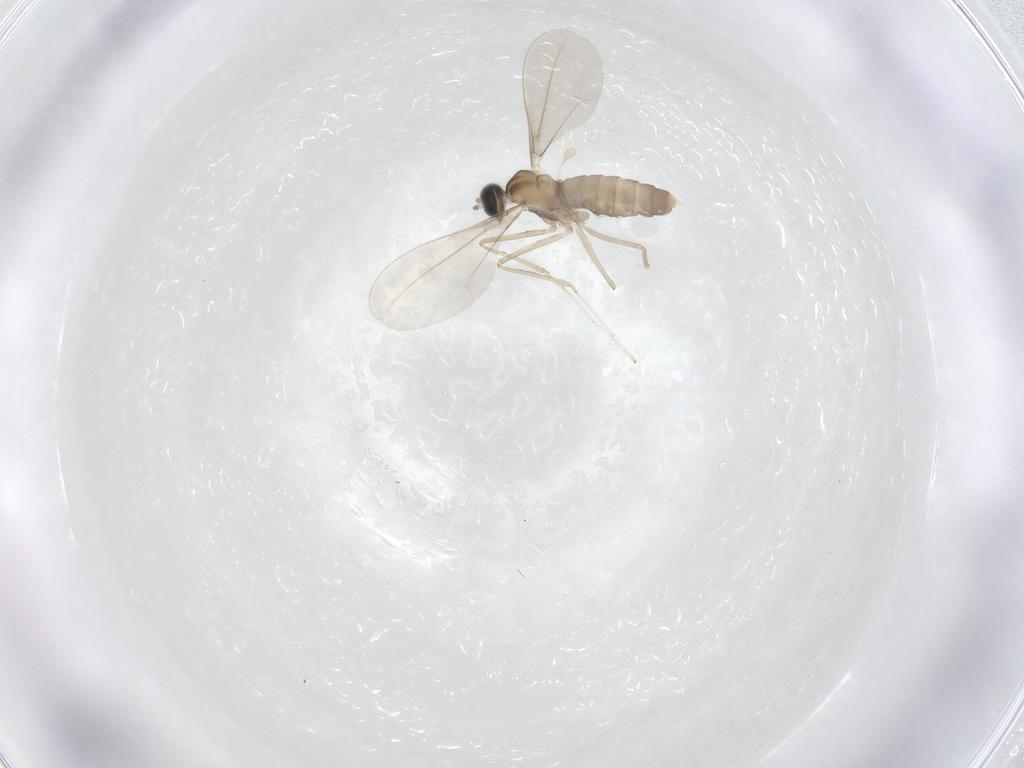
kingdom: Animalia
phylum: Arthropoda
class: Insecta
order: Diptera
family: Cecidomyiidae
